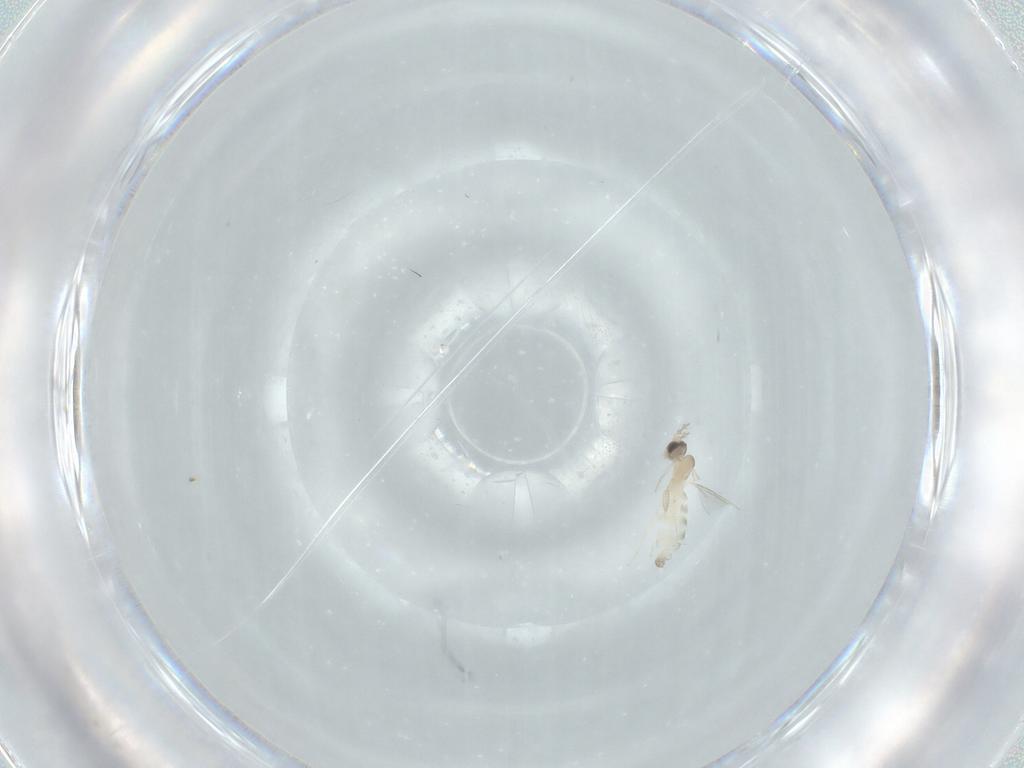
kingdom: Animalia
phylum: Arthropoda
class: Insecta
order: Diptera
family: Cecidomyiidae
